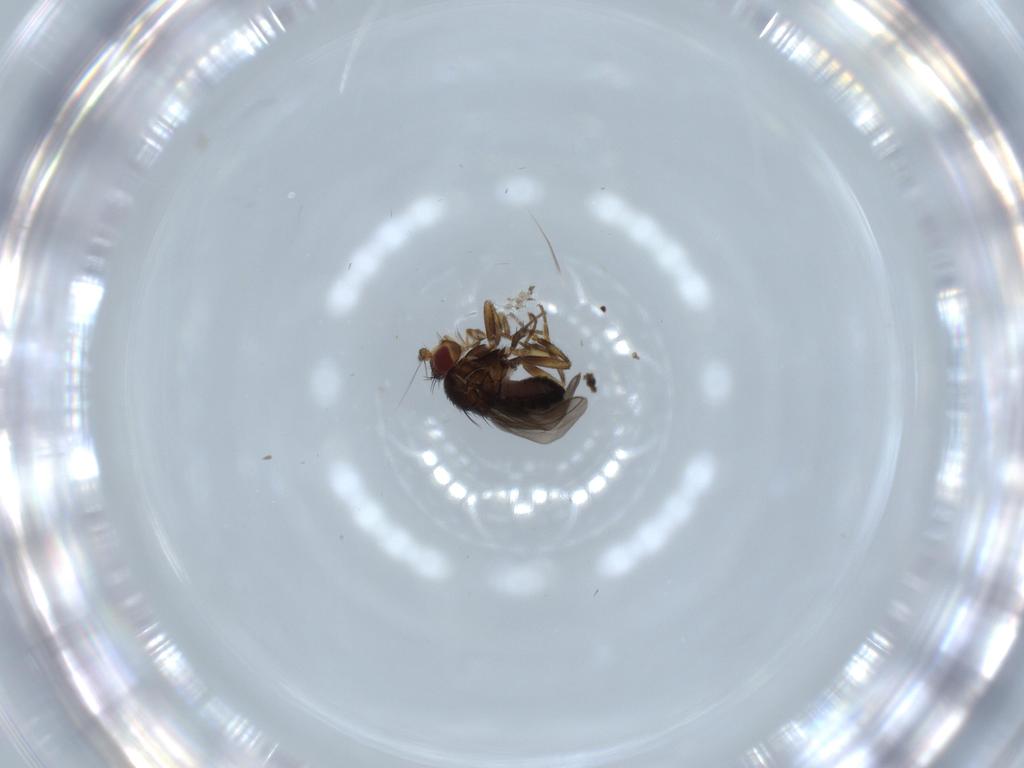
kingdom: Animalia
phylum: Arthropoda
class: Insecta
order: Diptera
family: Sphaeroceridae
